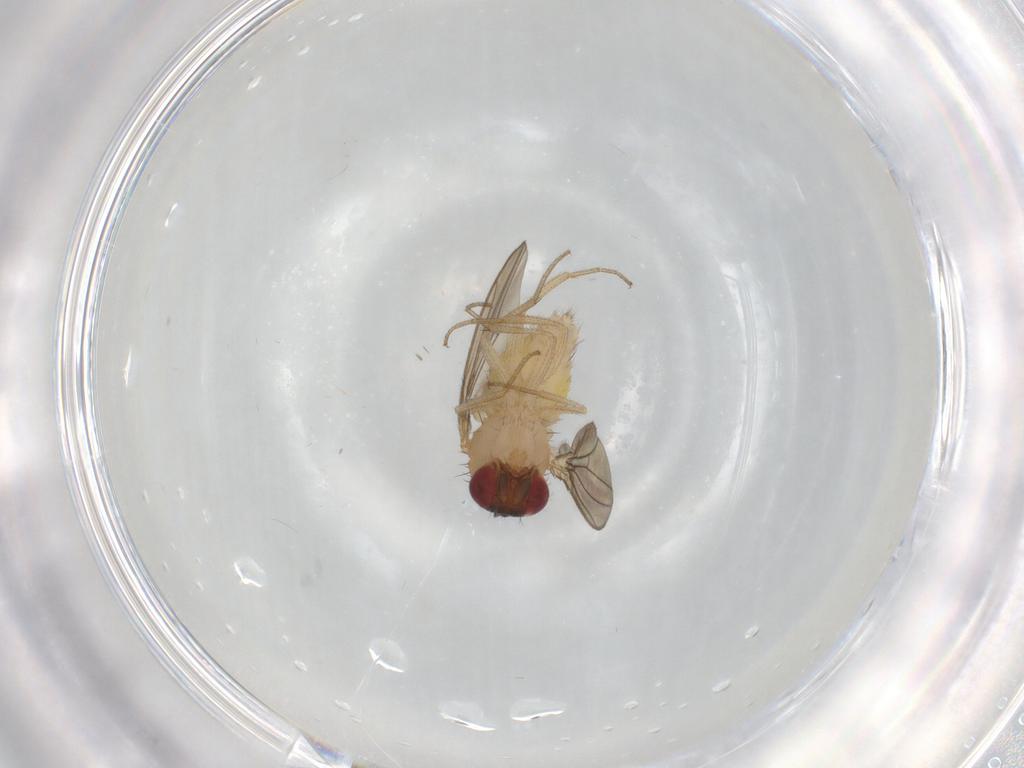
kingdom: Animalia
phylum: Arthropoda
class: Insecta
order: Diptera
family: Drosophilidae
